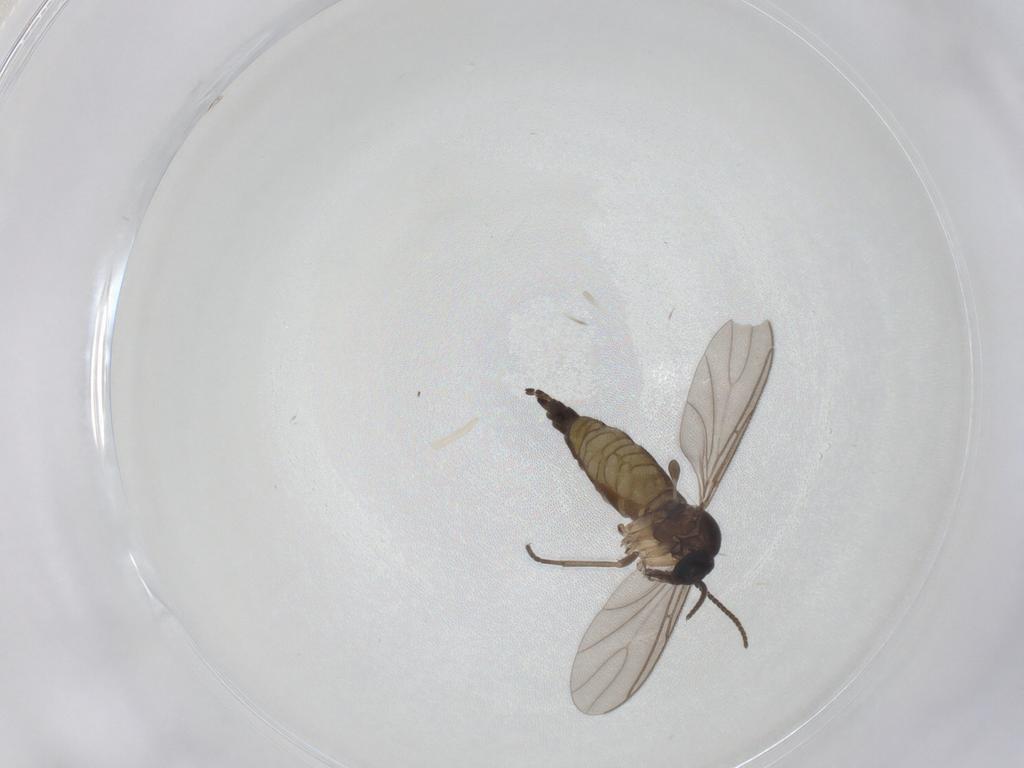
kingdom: Animalia
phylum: Arthropoda
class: Insecta
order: Diptera
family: Sciaridae
